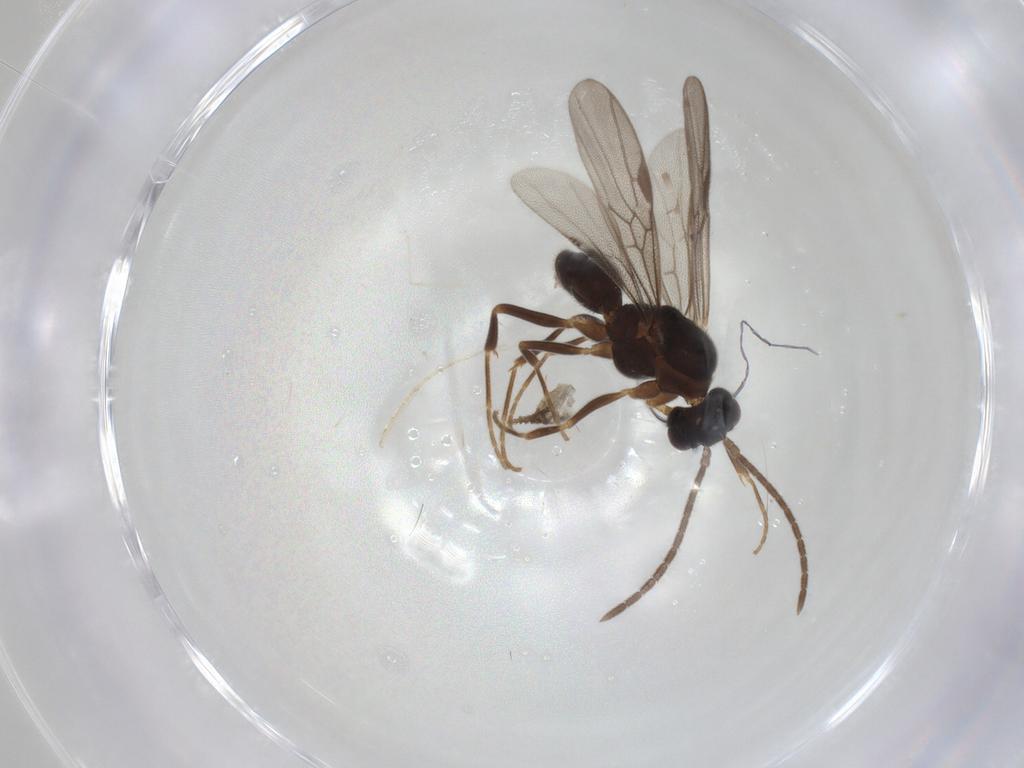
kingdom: Animalia
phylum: Arthropoda
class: Insecta
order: Hymenoptera
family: Formicidae
